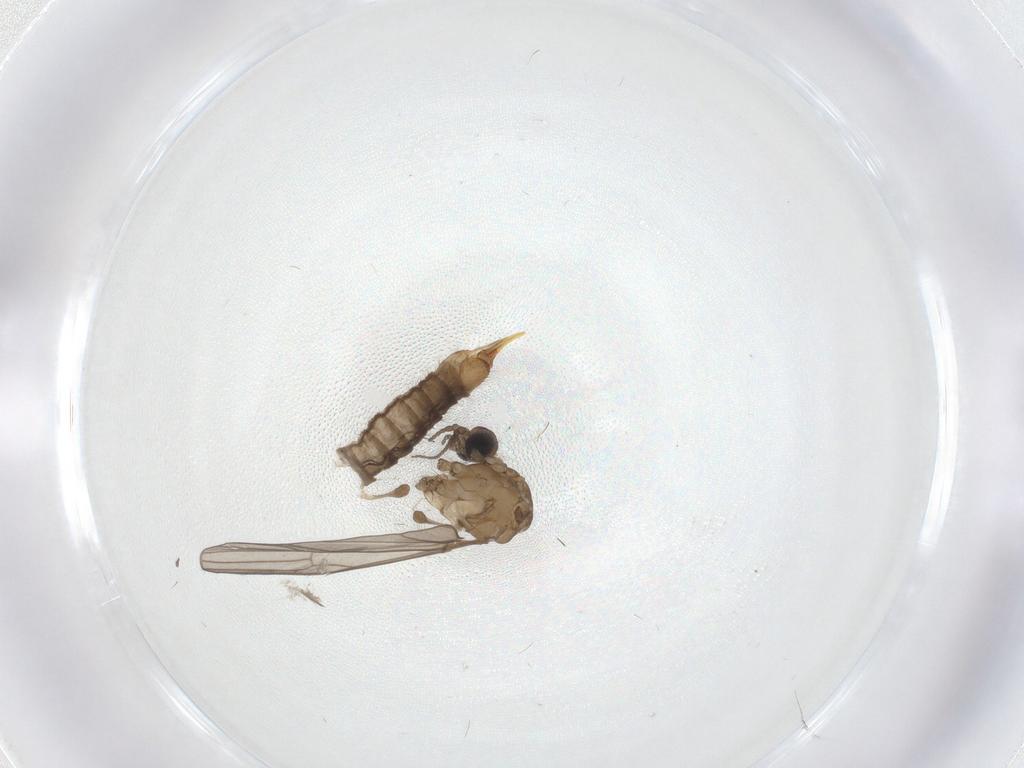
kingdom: Animalia
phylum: Arthropoda
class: Insecta
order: Diptera
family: Limoniidae
